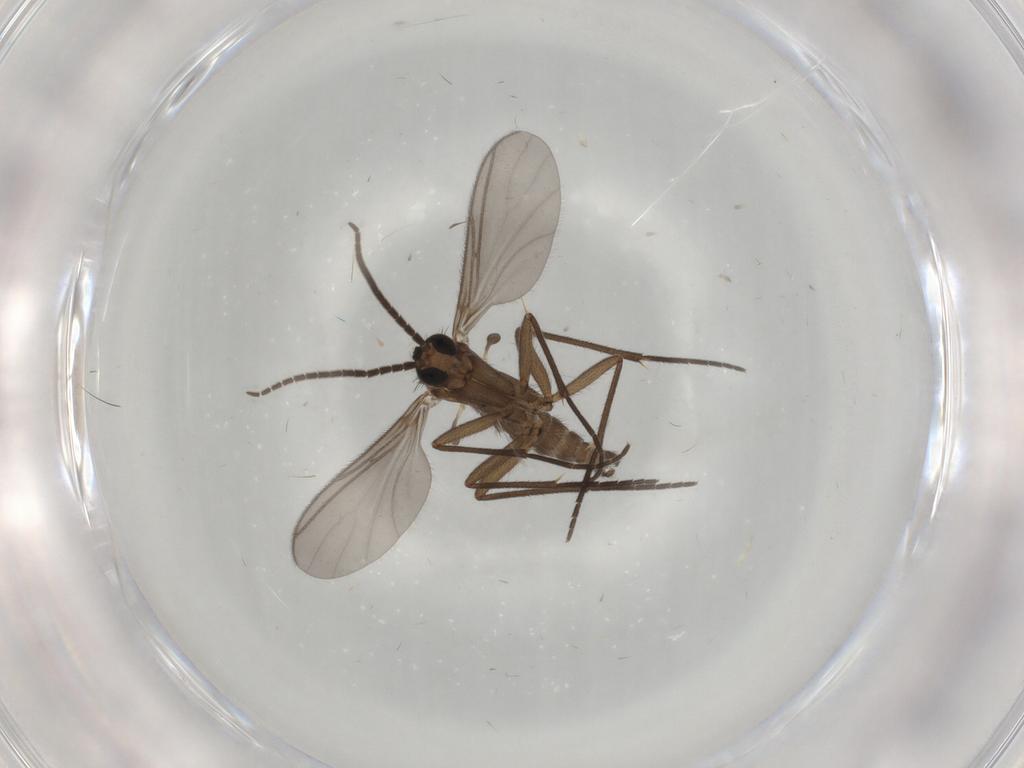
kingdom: Animalia
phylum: Arthropoda
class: Insecta
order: Diptera
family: Sciaridae
